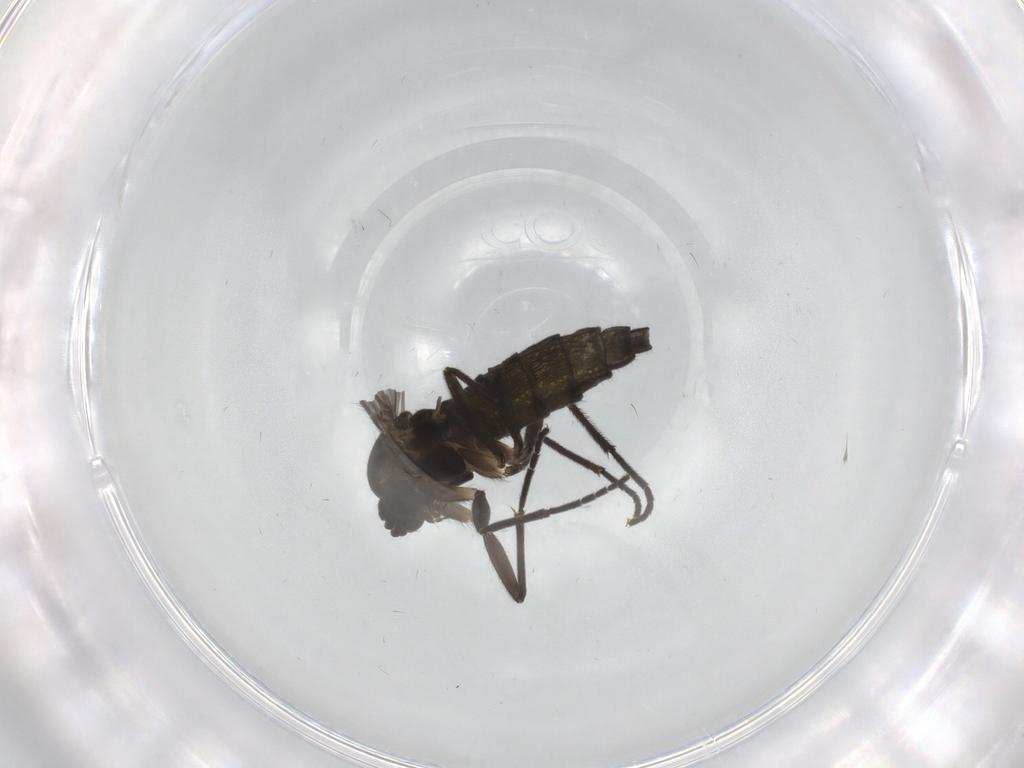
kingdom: Animalia
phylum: Arthropoda
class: Insecta
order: Diptera
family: Sciaridae
